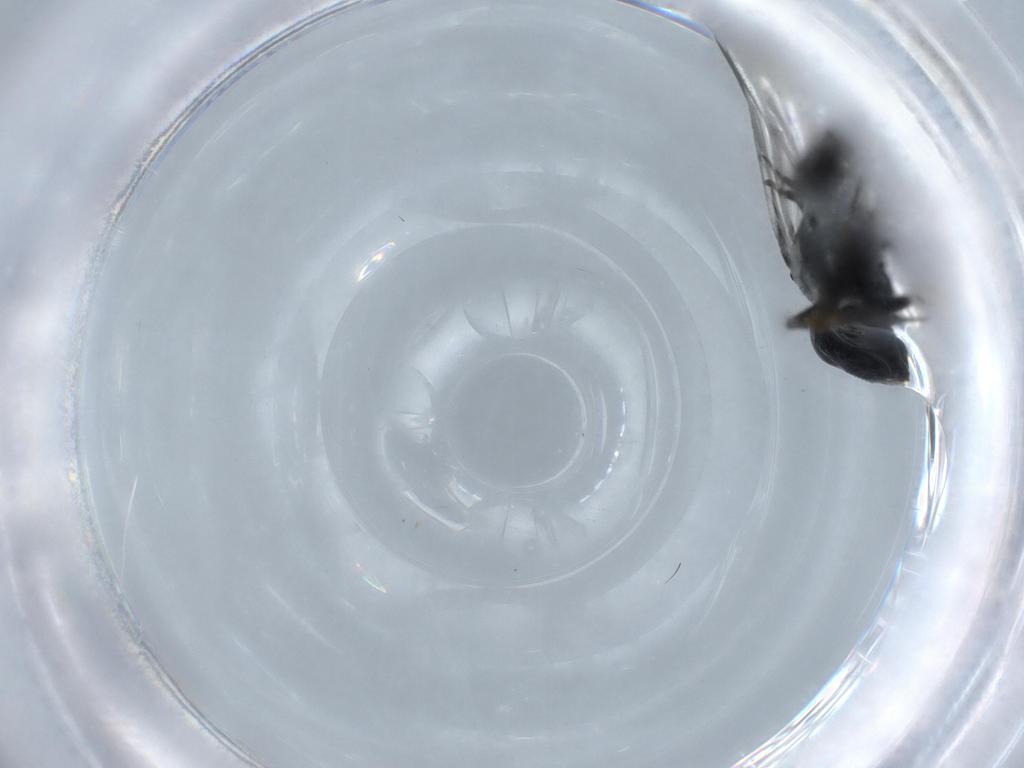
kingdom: Animalia
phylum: Arthropoda
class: Insecta
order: Hymenoptera
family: Dryinidae
